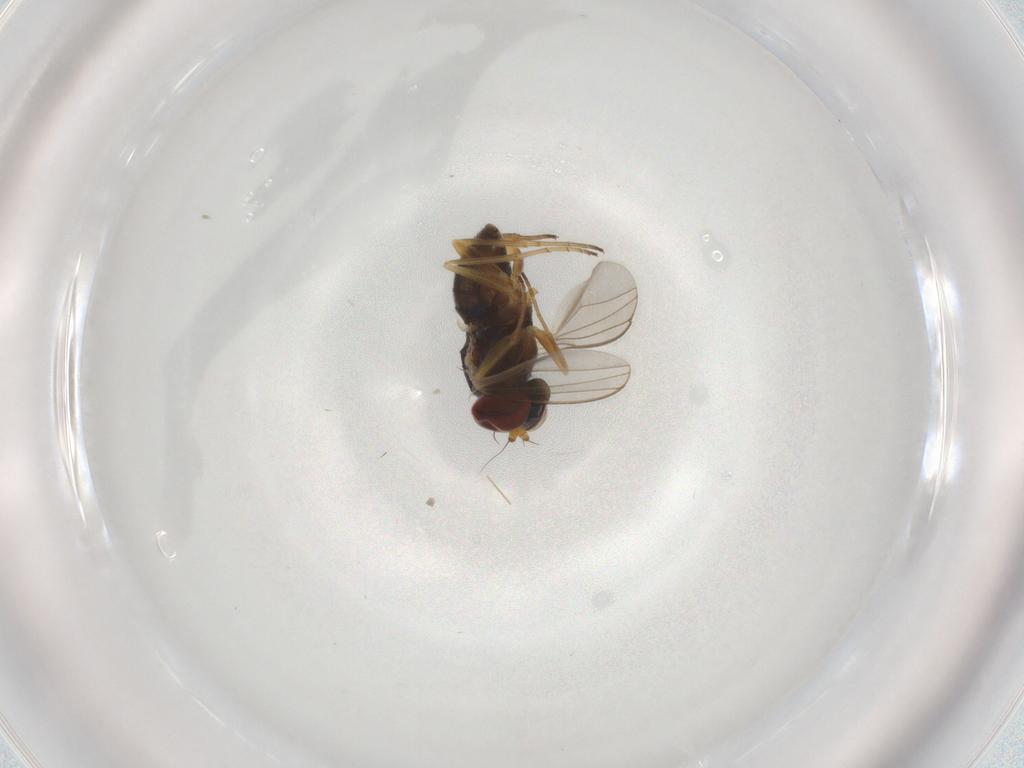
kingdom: Animalia
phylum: Arthropoda
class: Insecta
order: Diptera
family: Dolichopodidae
